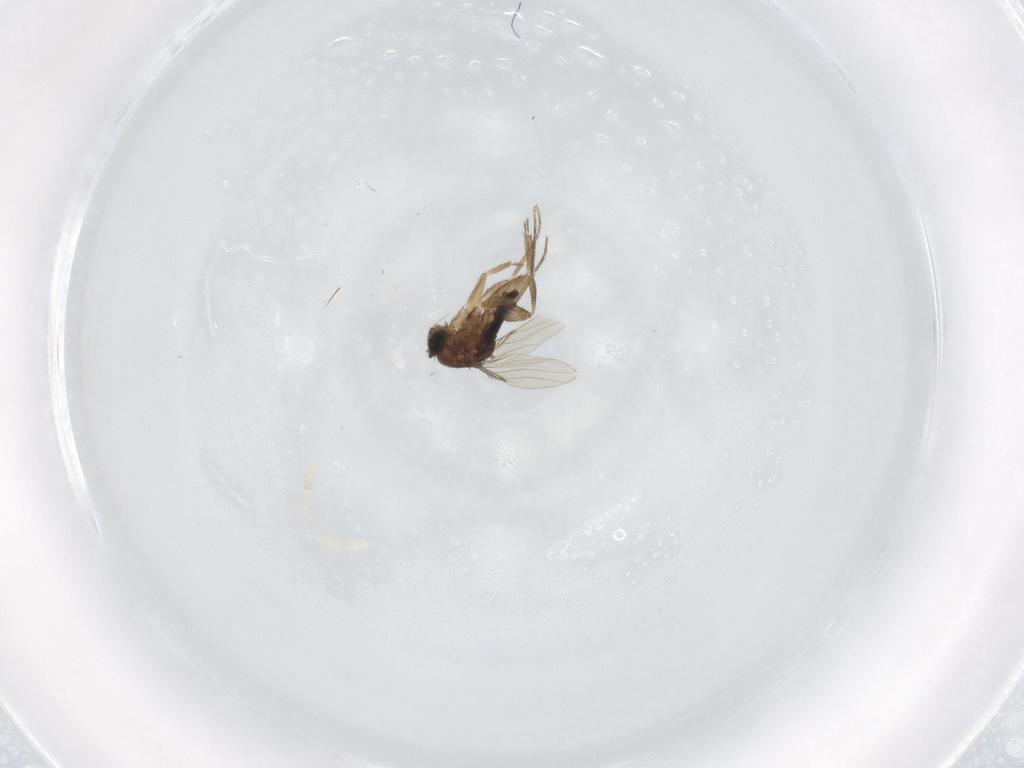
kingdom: Animalia
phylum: Arthropoda
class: Insecta
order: Diptera
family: Phoridae
